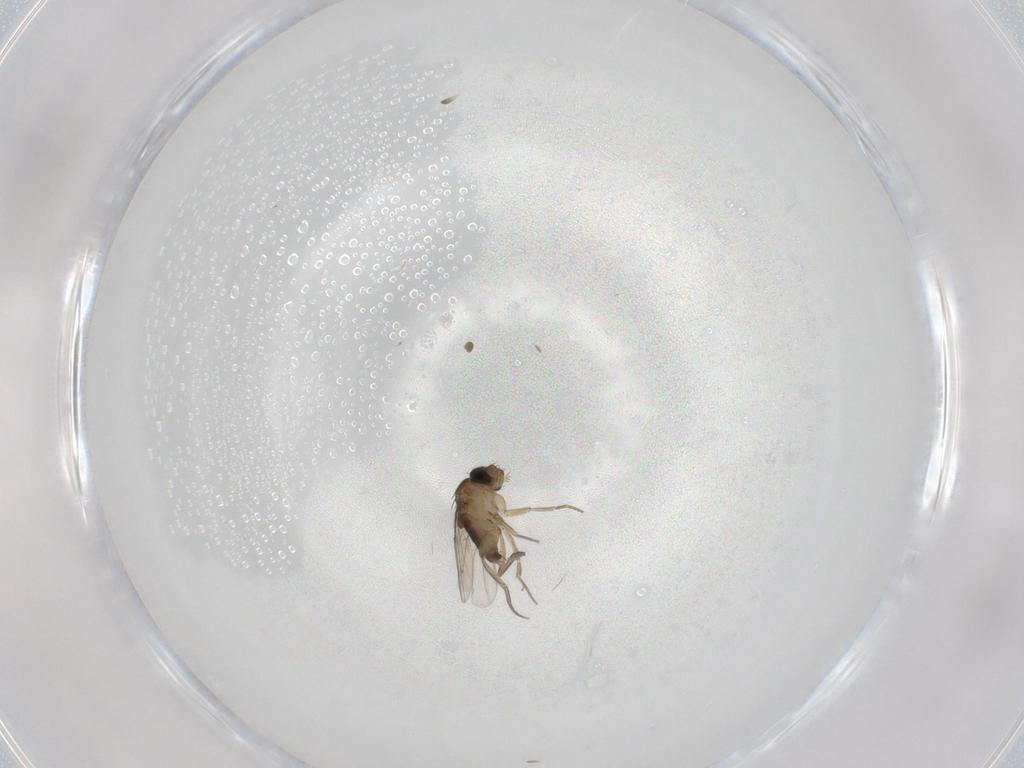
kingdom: Animalia
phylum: Arthropoda
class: Insecta
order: Diptera
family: Phoridae
